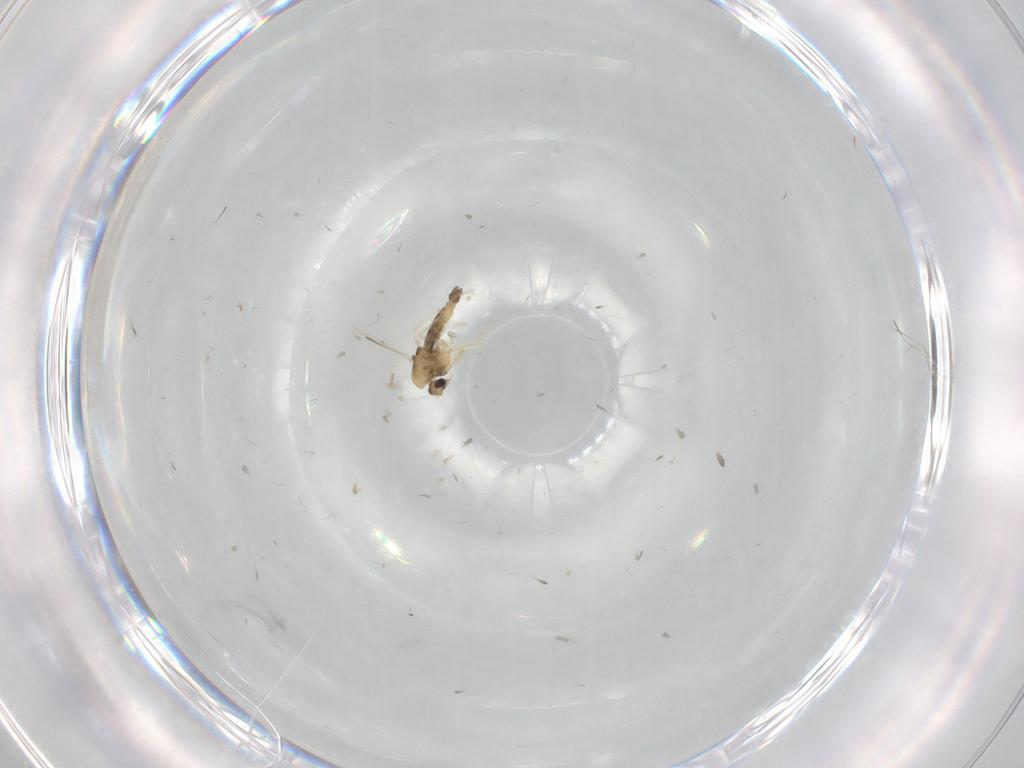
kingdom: Animalia
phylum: Arthropoda
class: Insecta
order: Diptera
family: Chironomidae
